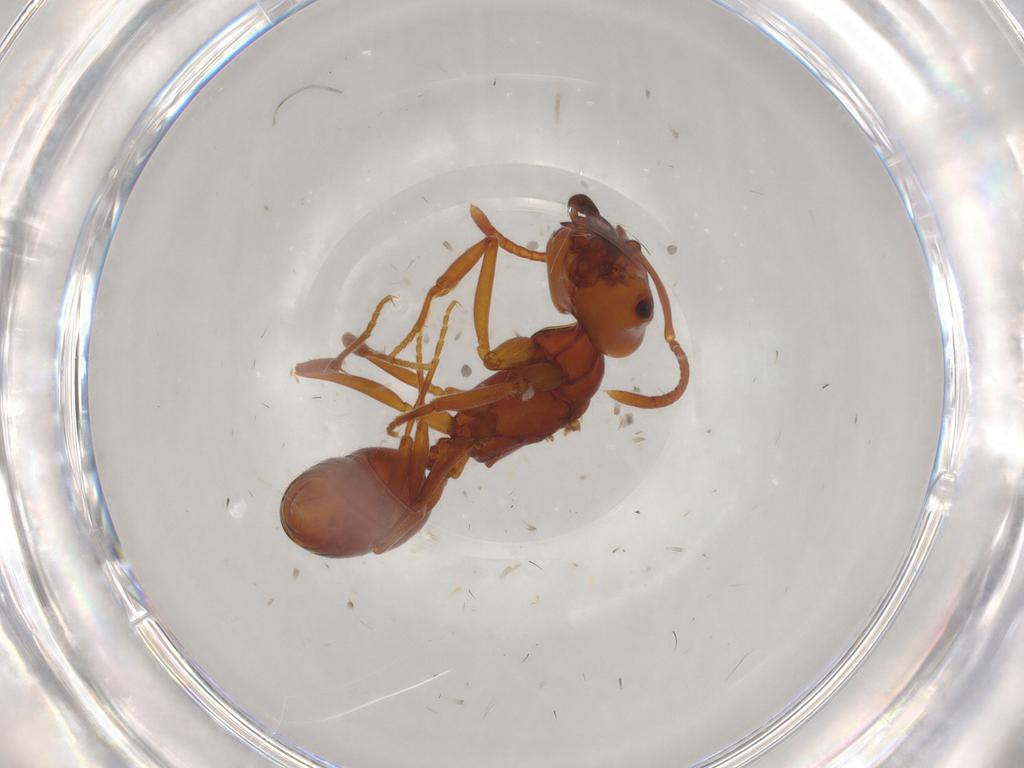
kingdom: Animalia
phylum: Arthropoda
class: Insecta
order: Hymenoptera
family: Formicidae
